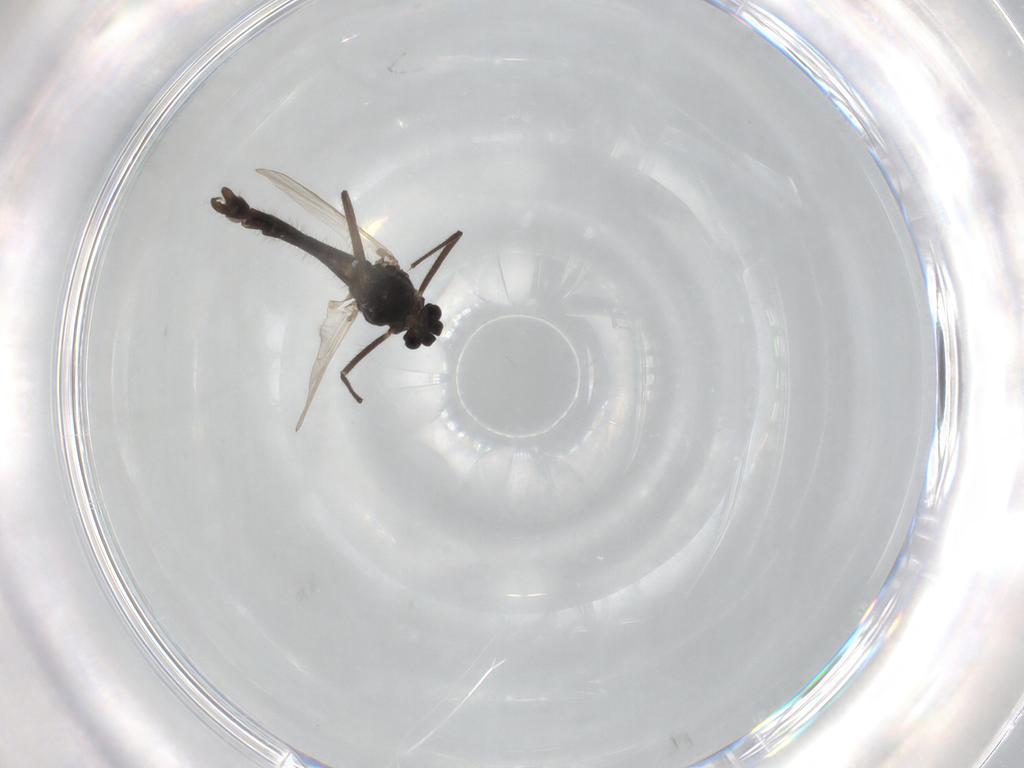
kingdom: Animalia
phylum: Arthropoda
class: Insecta
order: Diptera
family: Chironomidae
